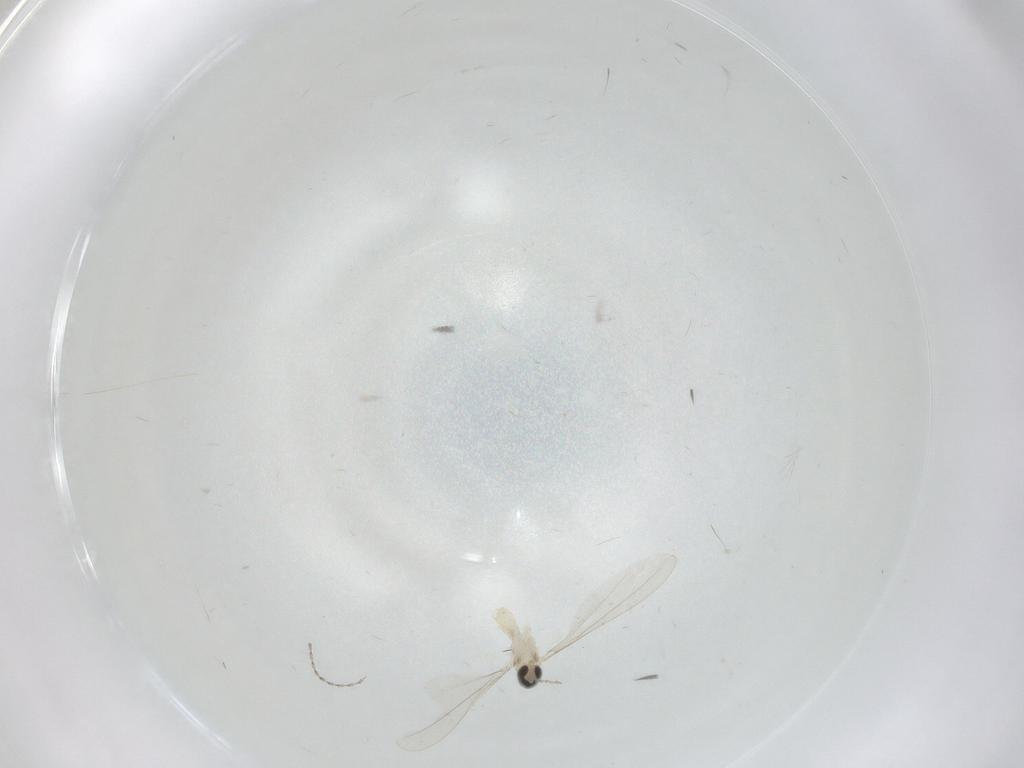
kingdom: Animalia
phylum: Arthropoda
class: Insecta
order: Diptera
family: Cecidomyiidae
